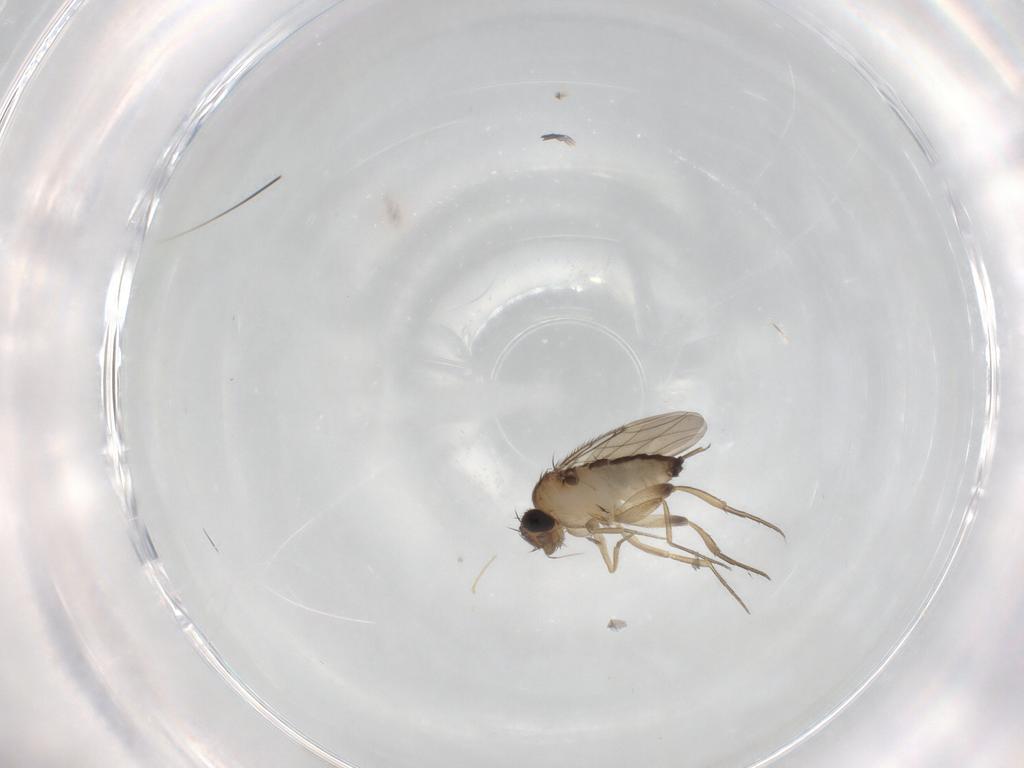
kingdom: Animalia
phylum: Arthropoda
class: Insecta
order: Diptera
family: Phoridae
